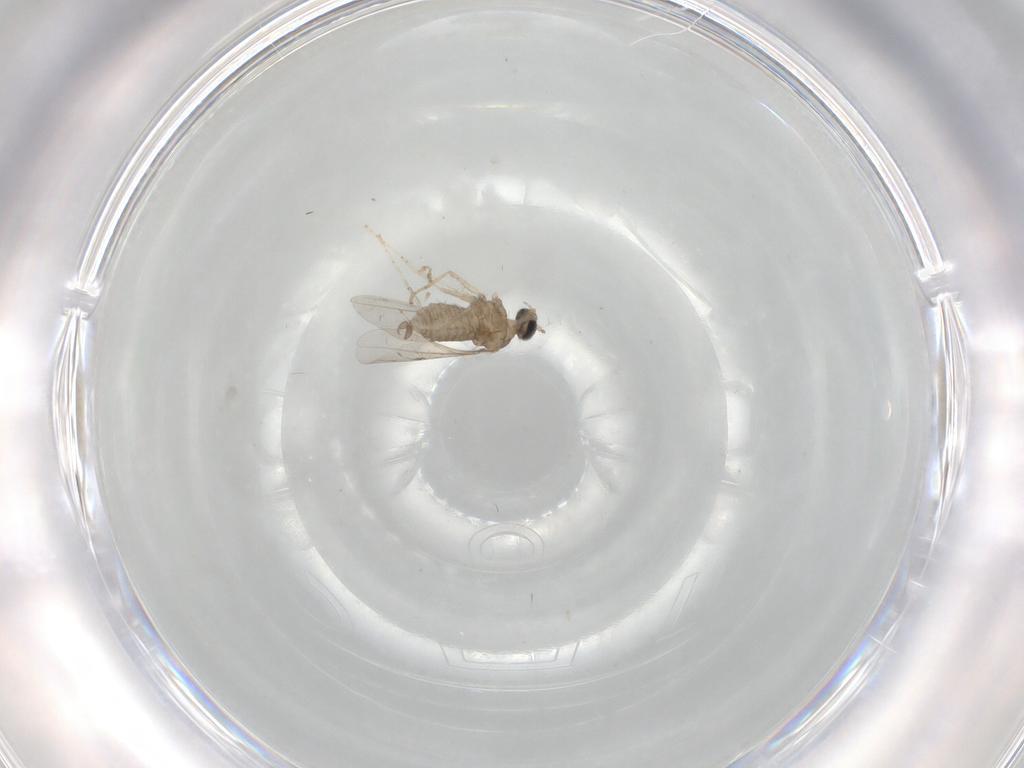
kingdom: Animalia
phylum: Arthropoda
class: Insecta
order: Diptera
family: Cecidomyiidae
